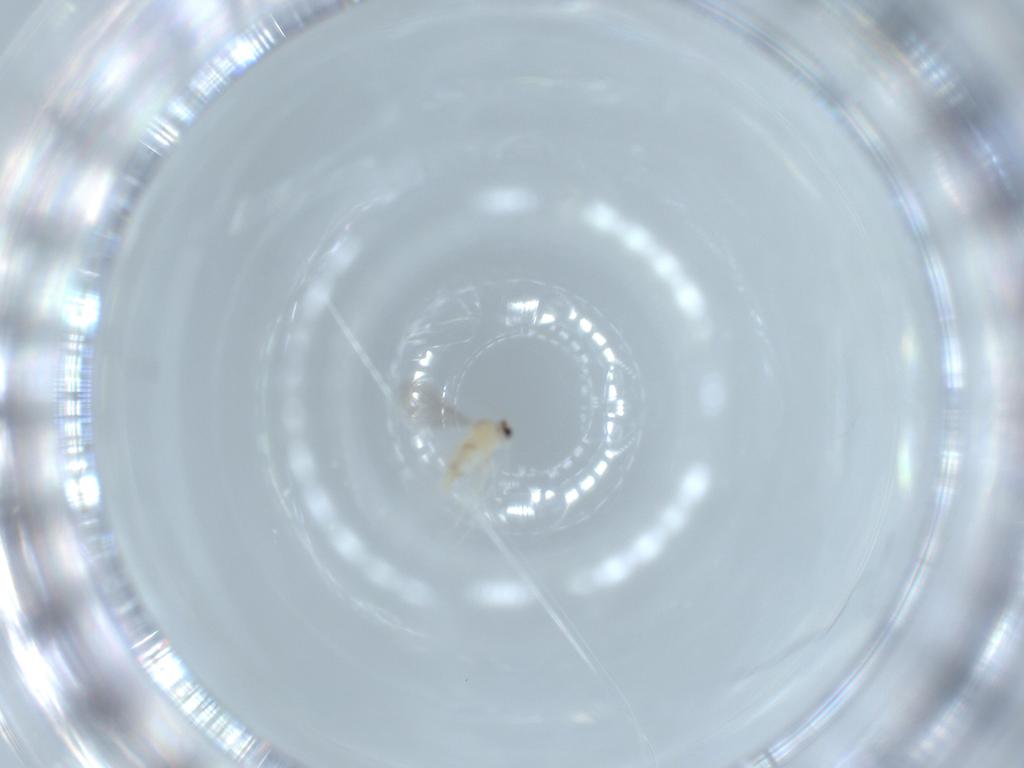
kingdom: Animalia
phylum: Arthropoda
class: Insecta
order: Diptera
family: Cecidomyiidae
